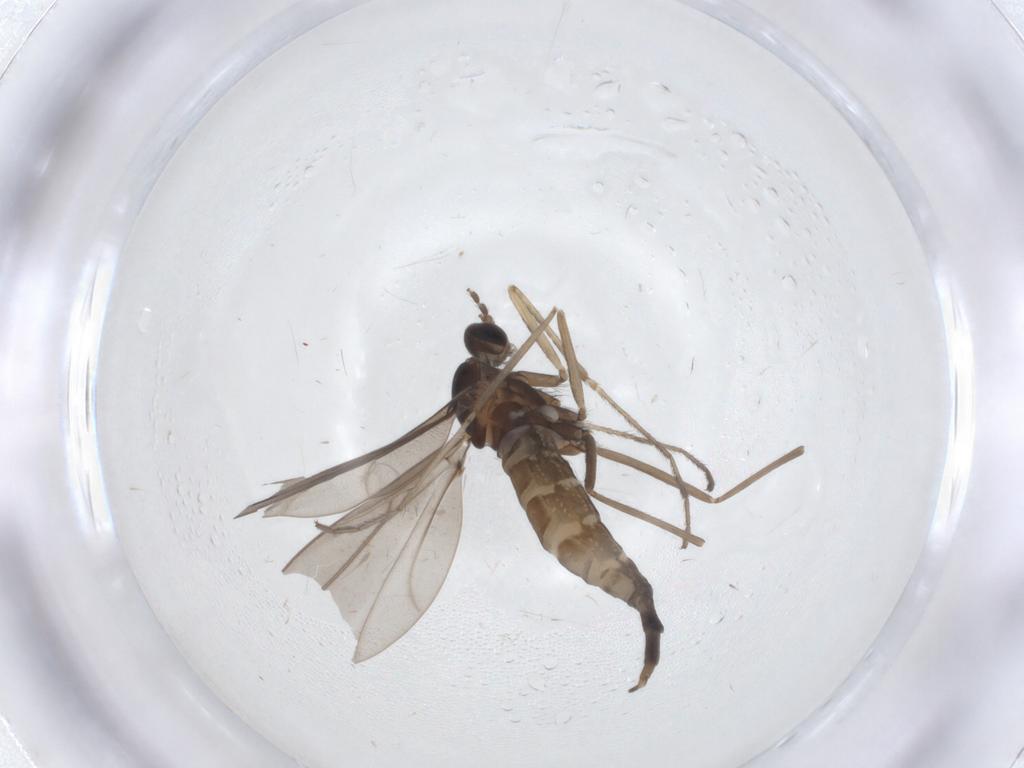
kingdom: Animalia
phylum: Arthropoda
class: Insecta
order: Diptera
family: Cecidomyiidae
